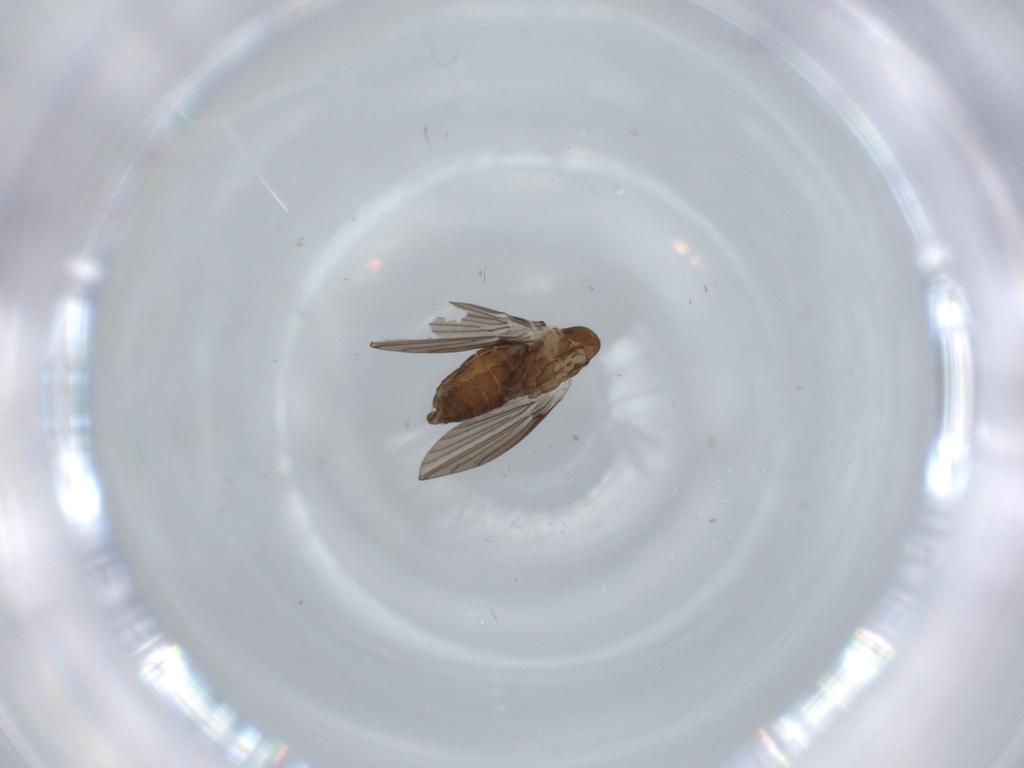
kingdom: Animalia
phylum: Arthropoda
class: Insecta
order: Diptera
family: Psychodidae
